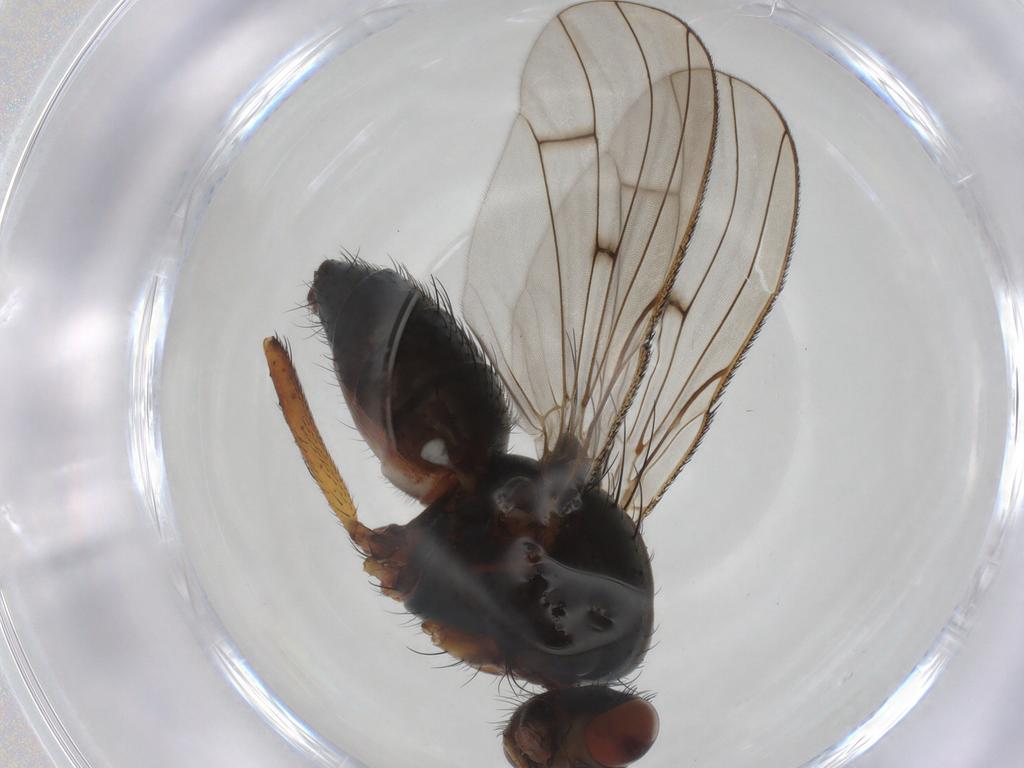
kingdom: Animalia
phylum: Arthropoda
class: Insecta
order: Diptera
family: Anthomyiidae
